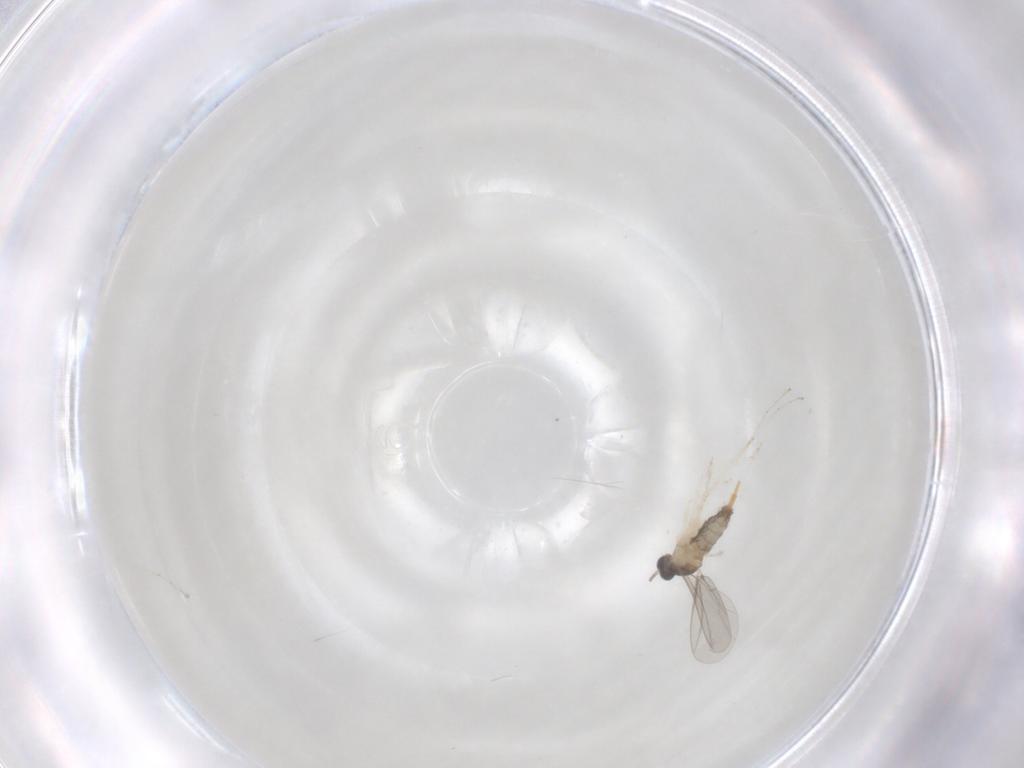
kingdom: Animalia
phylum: Arthropoda
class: Insecta
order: Diptera
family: Cecidomyiidae
